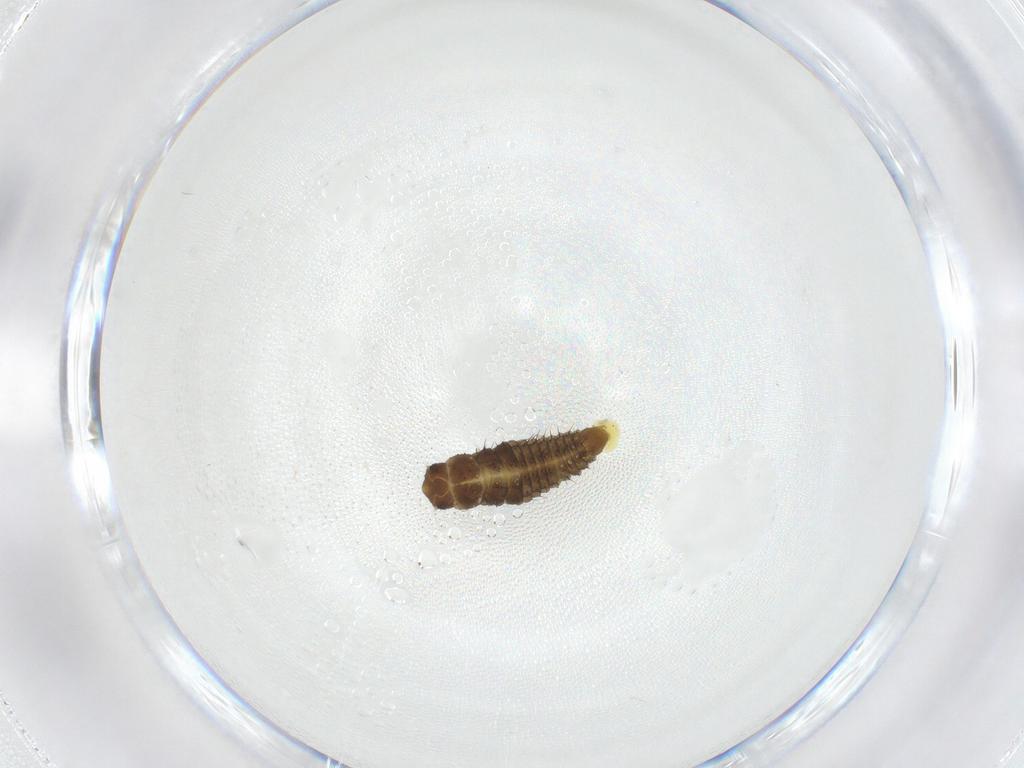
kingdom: Animalia
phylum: Arthropoda
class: Insecta
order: Coleoptera
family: Coccinellidae
